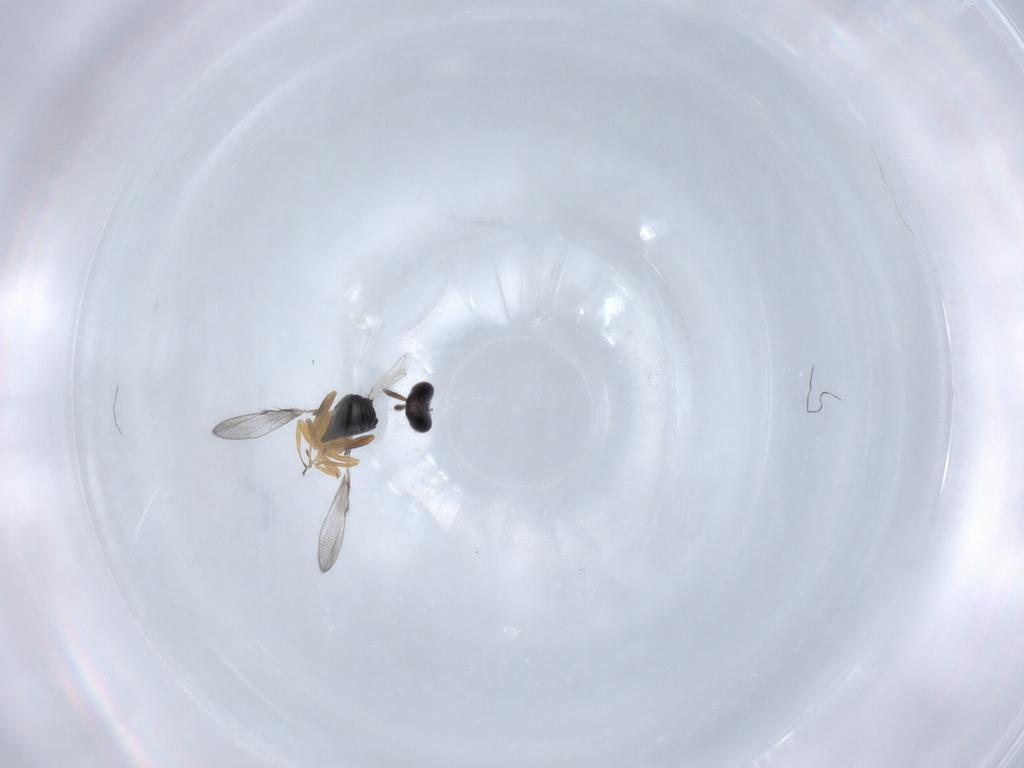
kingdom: Animalia
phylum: Arthropoda
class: Insecta
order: Hymenoptera
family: Trichogrammatidae
